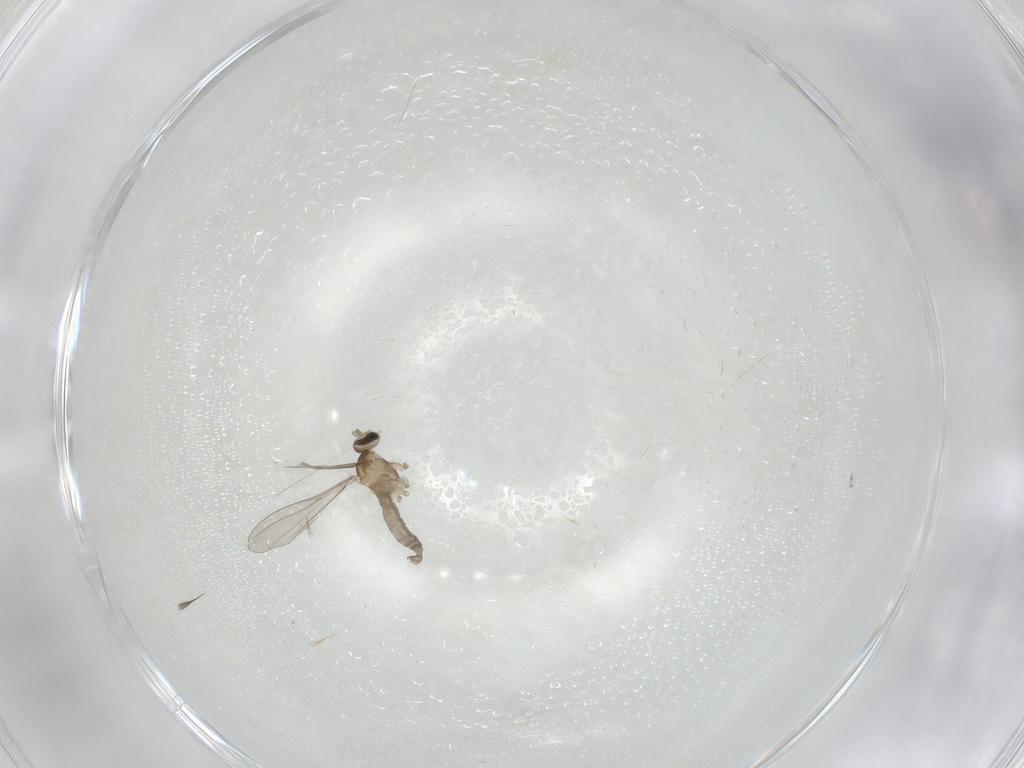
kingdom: Animalia
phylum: Arthropoda
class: Insecta
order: Diptera
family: Cecidomyiidae
